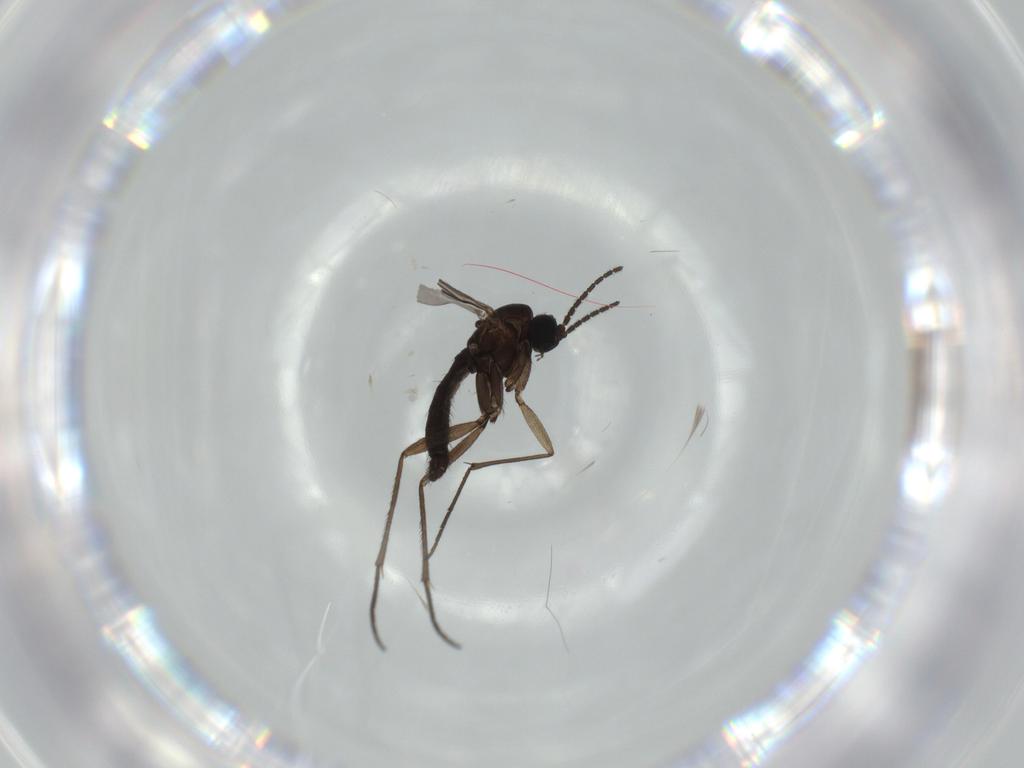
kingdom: Animalia
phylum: Arthropoda
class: Insecta
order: Diptera
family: Sciaridae
